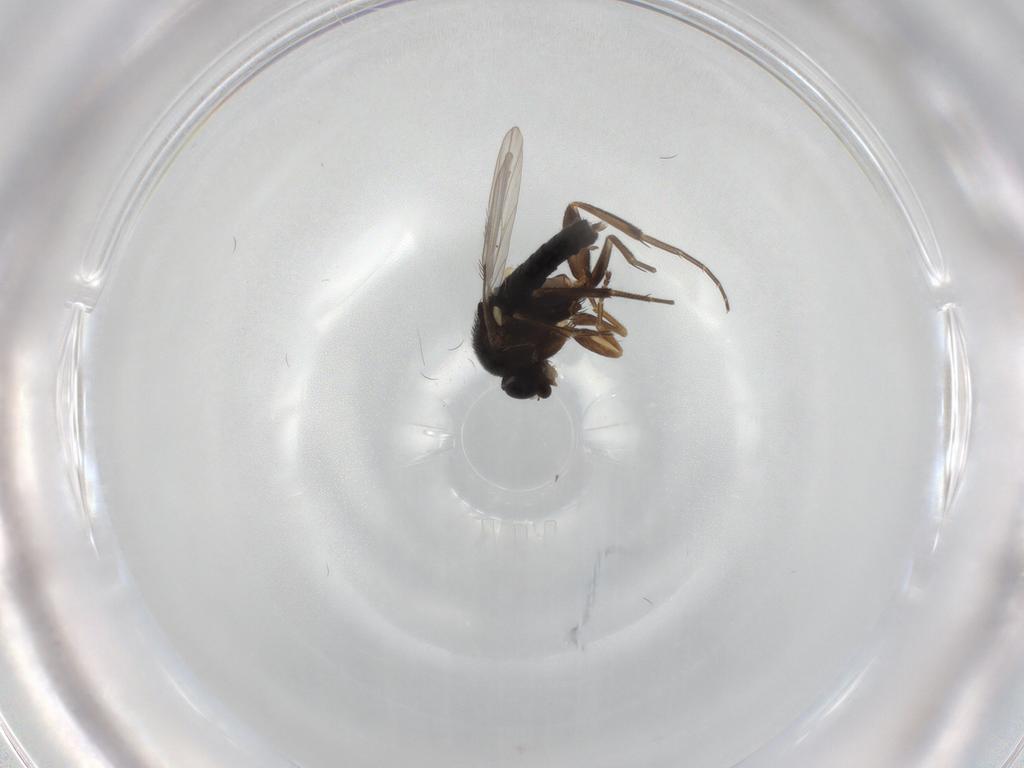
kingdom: Animalia
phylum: Arthropoda
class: Insecta
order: Diptera
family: Phoridae
